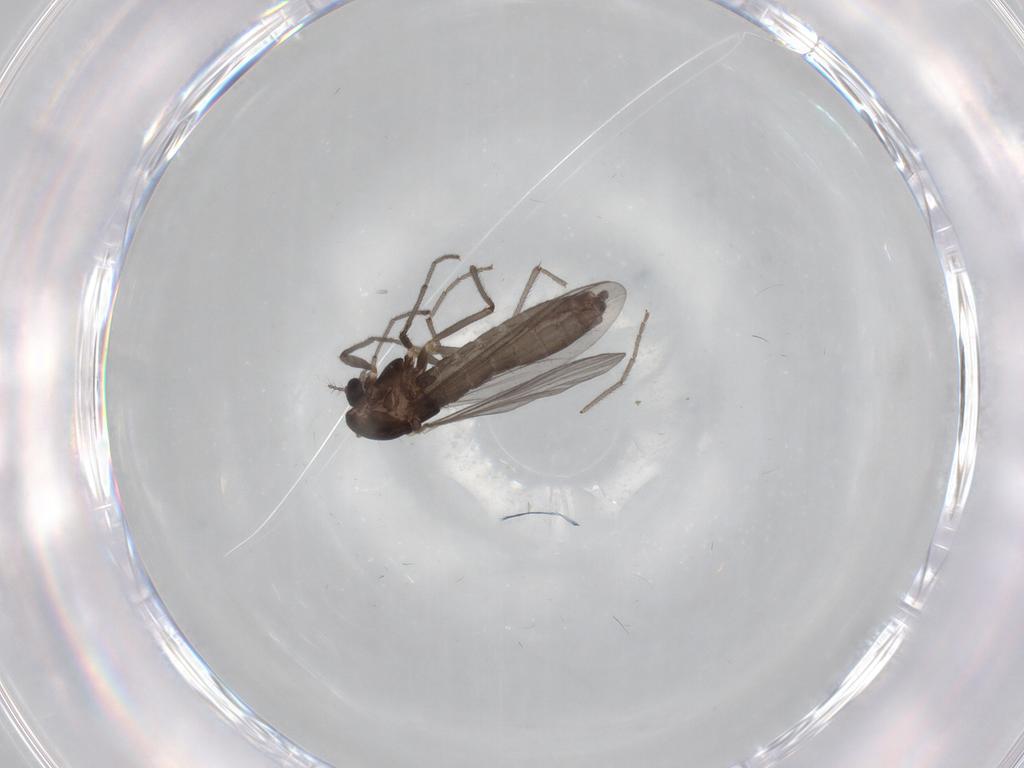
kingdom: Animalia
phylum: Arthropoda
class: Insecta
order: Diptera
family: Chironomidae
